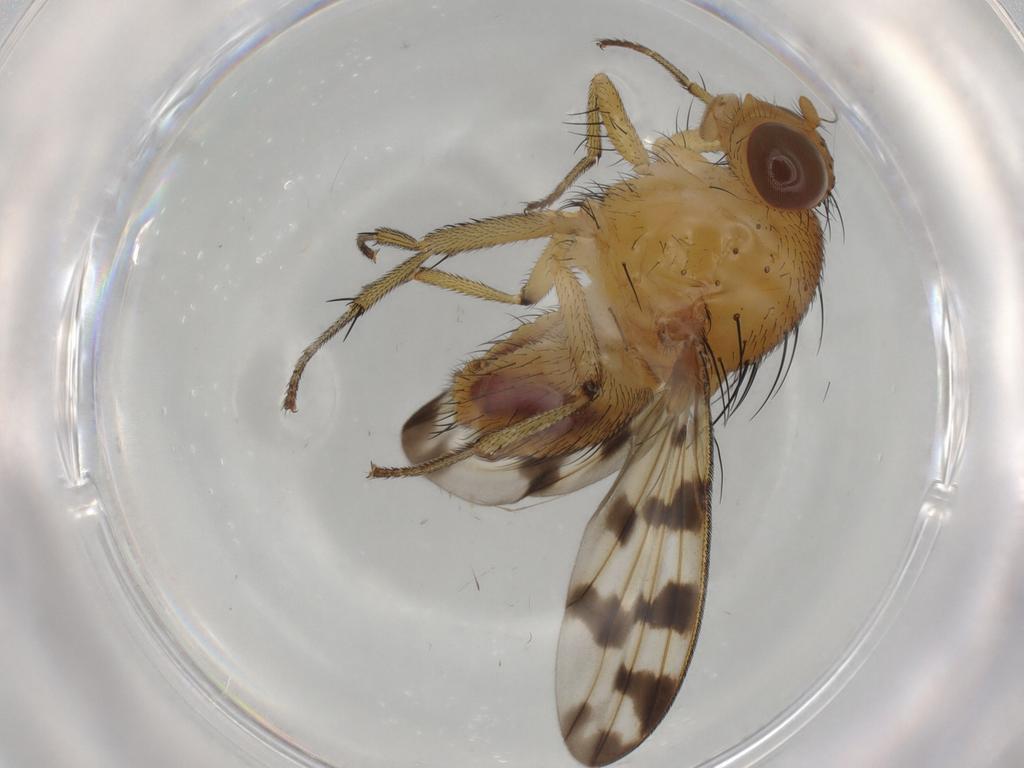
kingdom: Animalia
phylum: Arthropoda
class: Insecta
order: Diptera
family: Psychodidae
